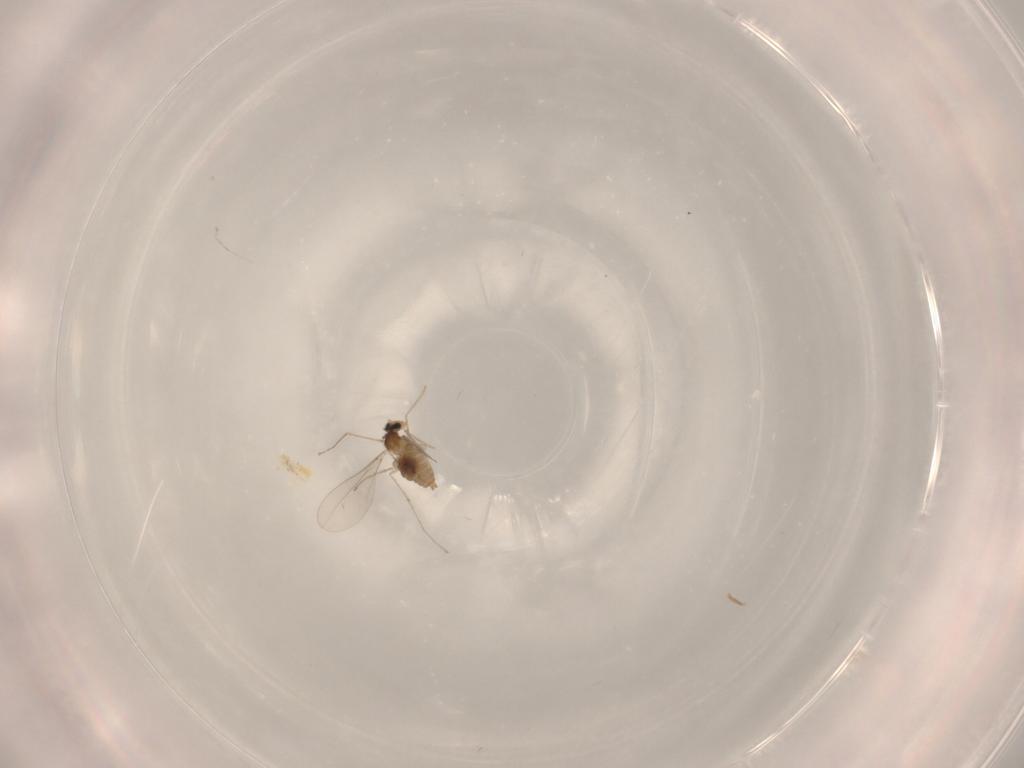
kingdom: Animalia
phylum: Arthropoda
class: Insecta
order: Diptera
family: Cecidomyiidae
